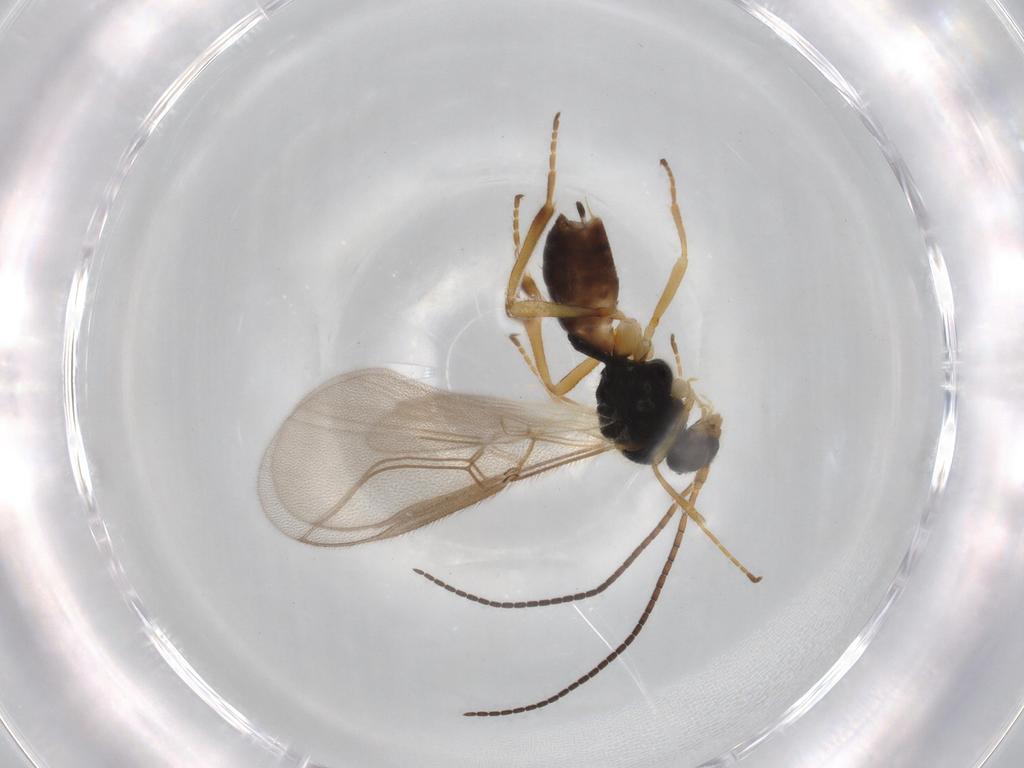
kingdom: Animalia
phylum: Arthropoda
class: Insecta
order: Hymenoptera
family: Braconidae
